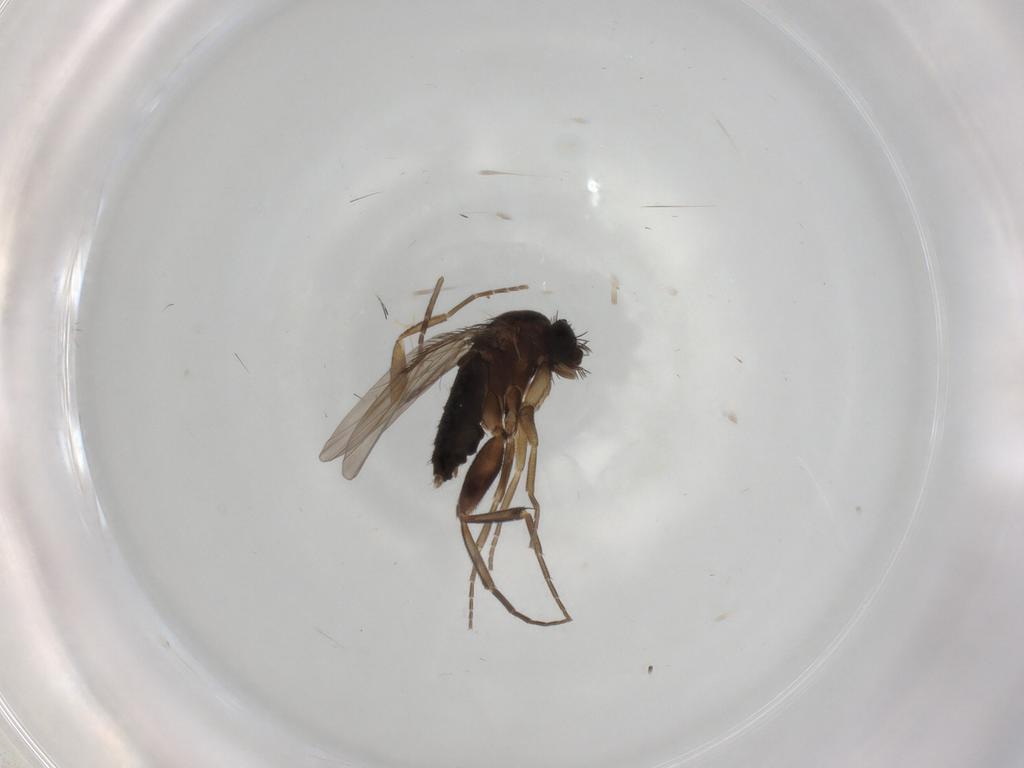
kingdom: Animalia
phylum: Arthropoda
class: Insecta
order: Diptera
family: Phoridae
